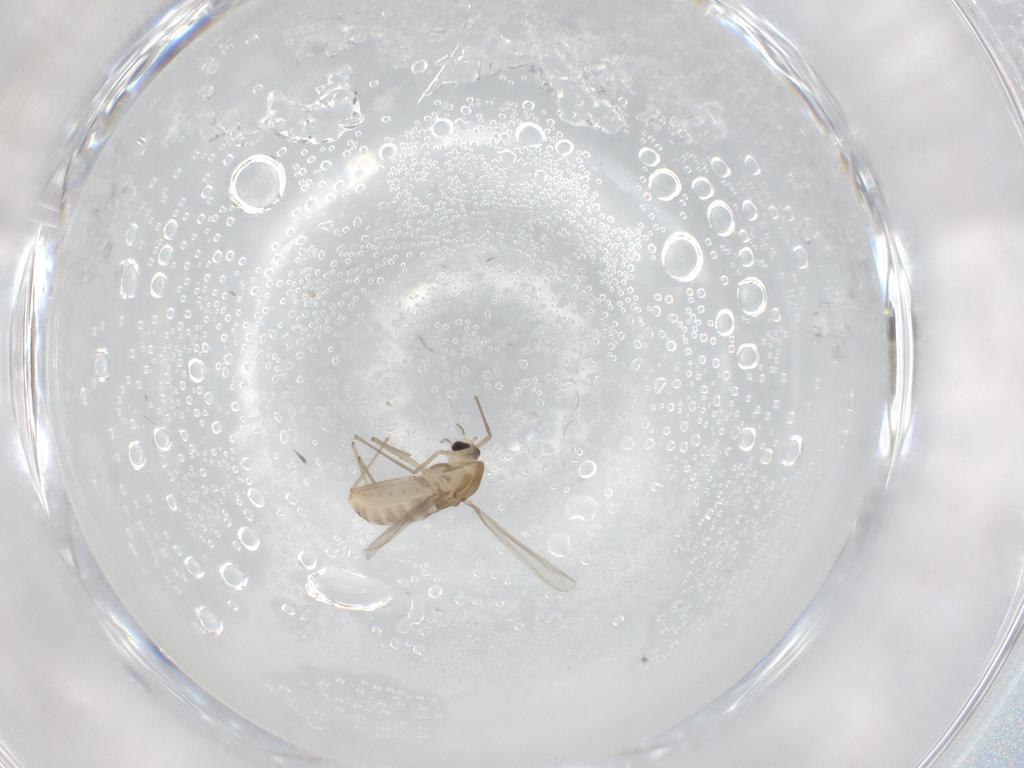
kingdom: Animalia
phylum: Arthropoda
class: Insecta
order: Diptera
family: Chironomidae
